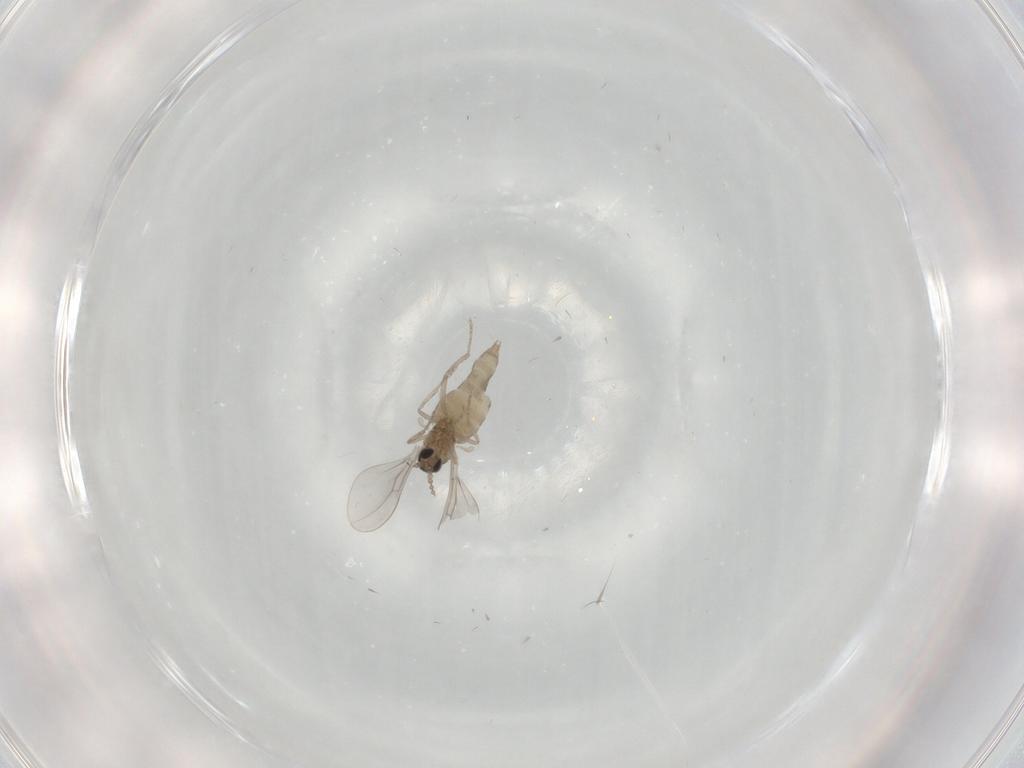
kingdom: Animalia
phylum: Arthropoda
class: Insecta
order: Diptera
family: Cecidomyiidae
